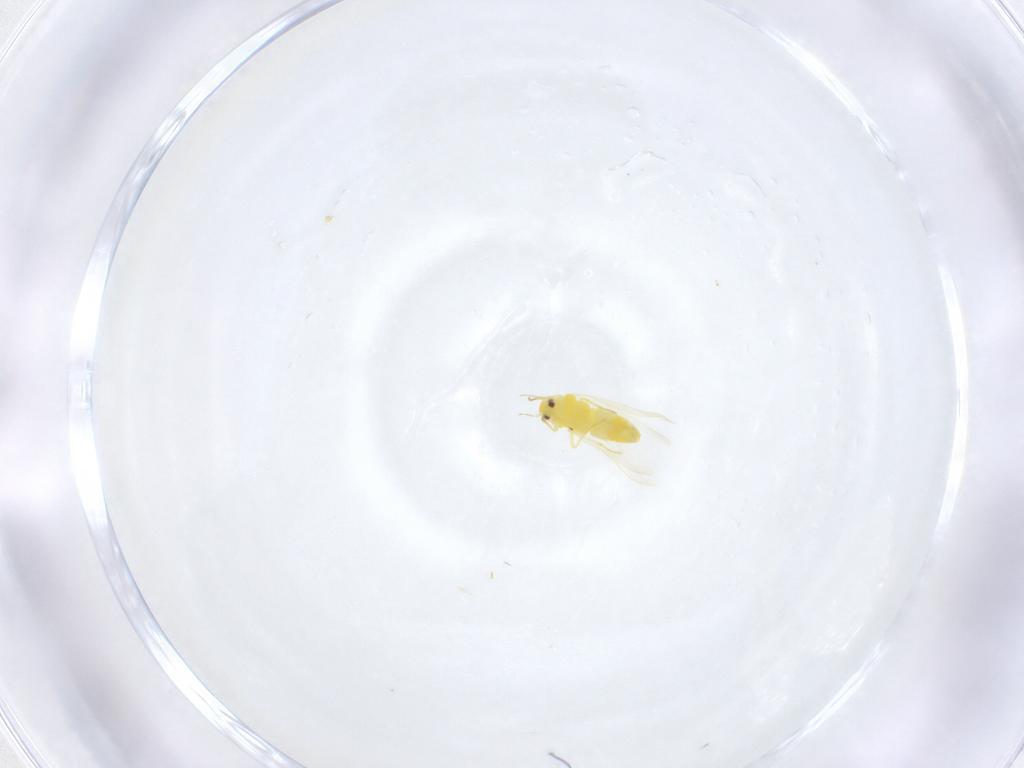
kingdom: Animalia
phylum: Arthropoda
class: Insecta
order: Hemiptera
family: Aleyrodidae
